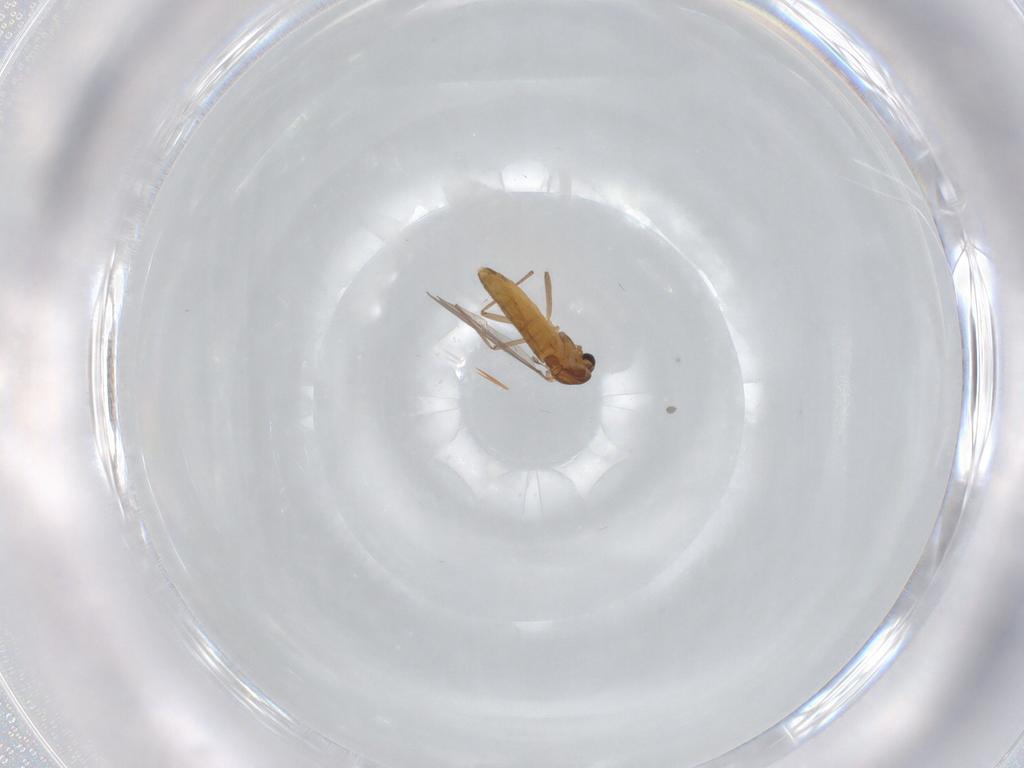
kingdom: Animalia
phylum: Arthropoda
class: Insecta
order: Diptera
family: Chironomidae
